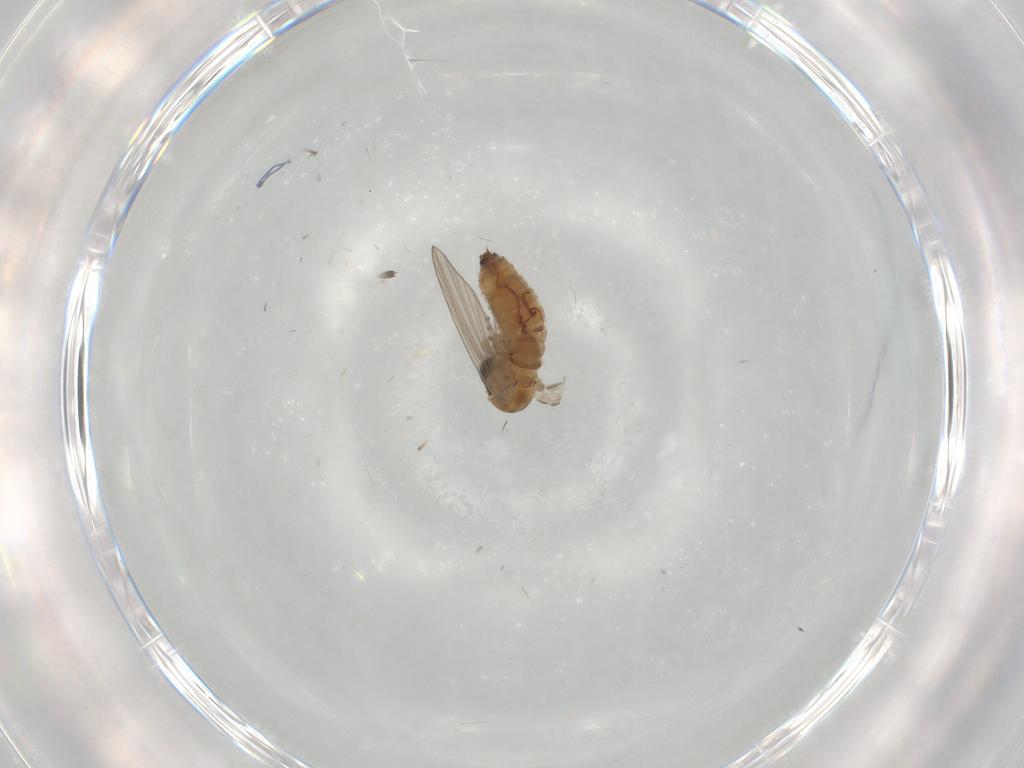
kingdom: Animalia
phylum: Arthropoda
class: Insecta
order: Diptera
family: Psychodidae
